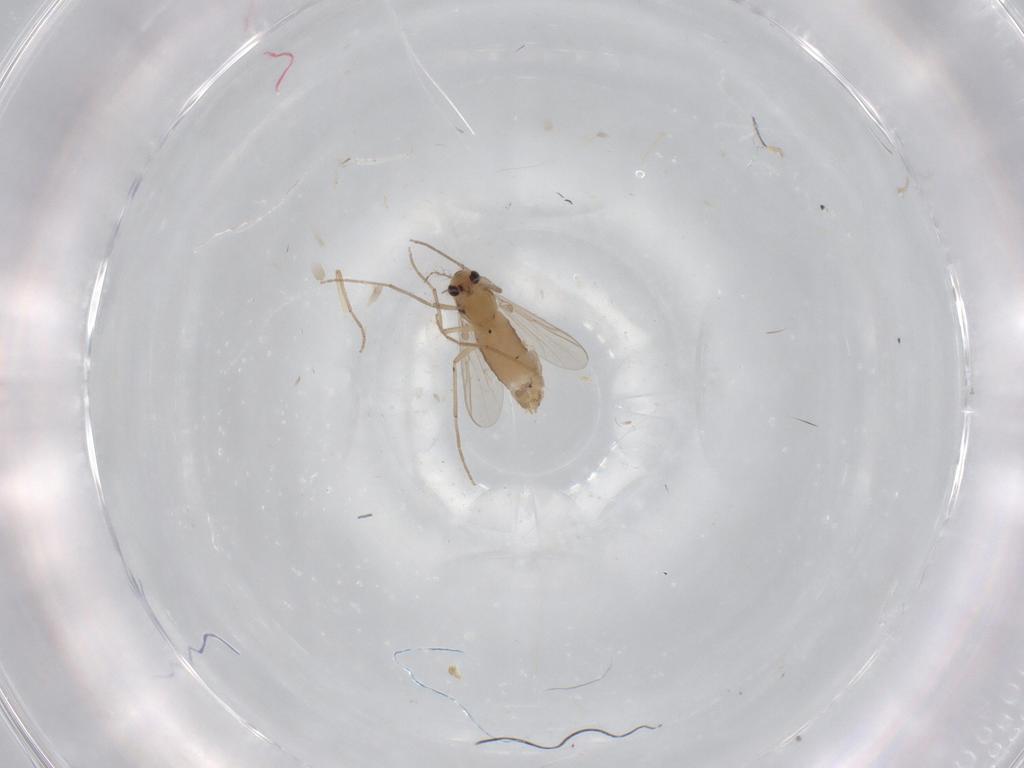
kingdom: Animalia
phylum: Arthropoda
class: Insecta
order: Diptera
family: Chironomidae
